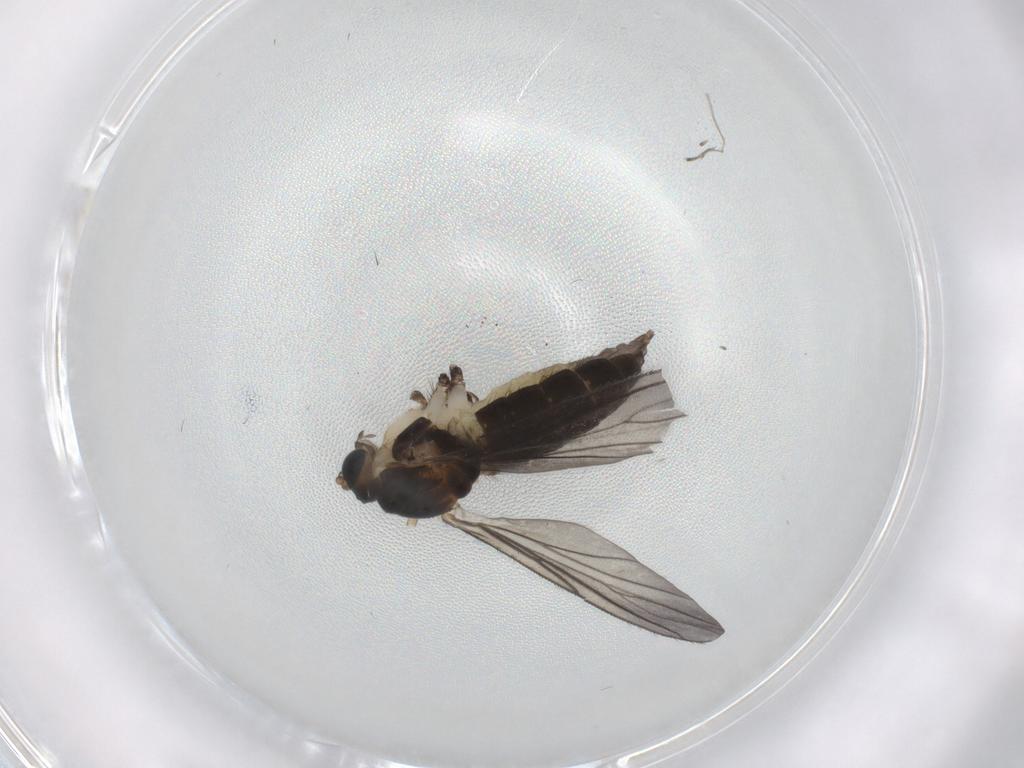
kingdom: Animalia
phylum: Arthropoda
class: Insecta
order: Diptera
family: Sciaridae
